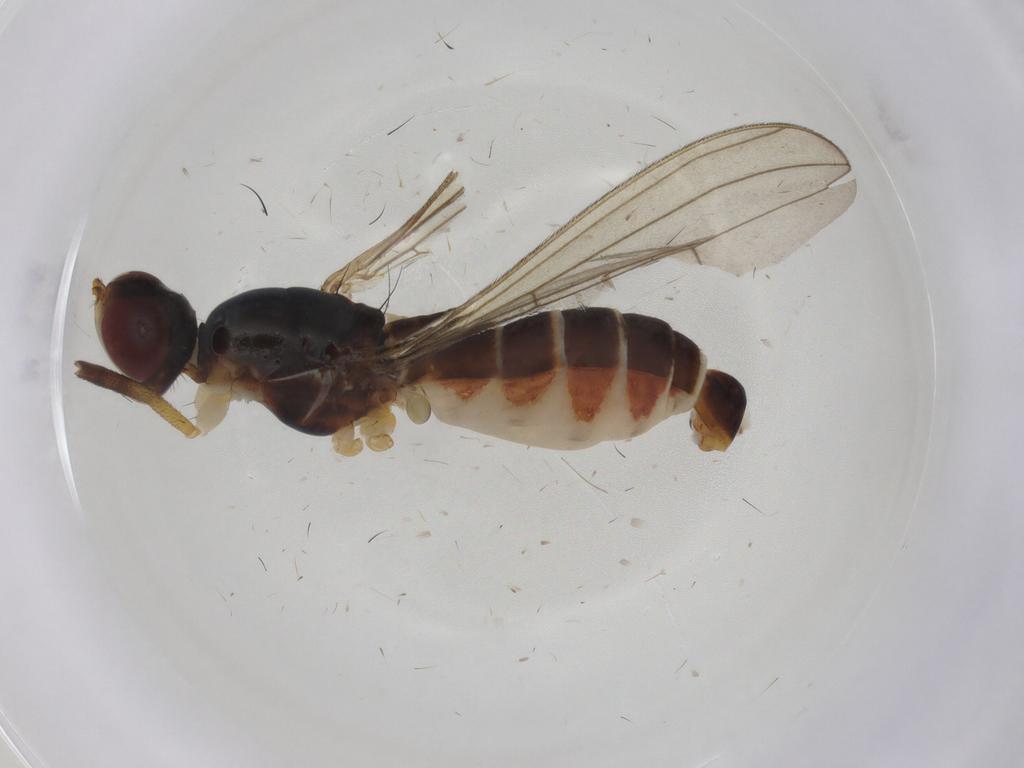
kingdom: Animalia
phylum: Arthropoda
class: Insecta
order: Diptera
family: Micropezidae
